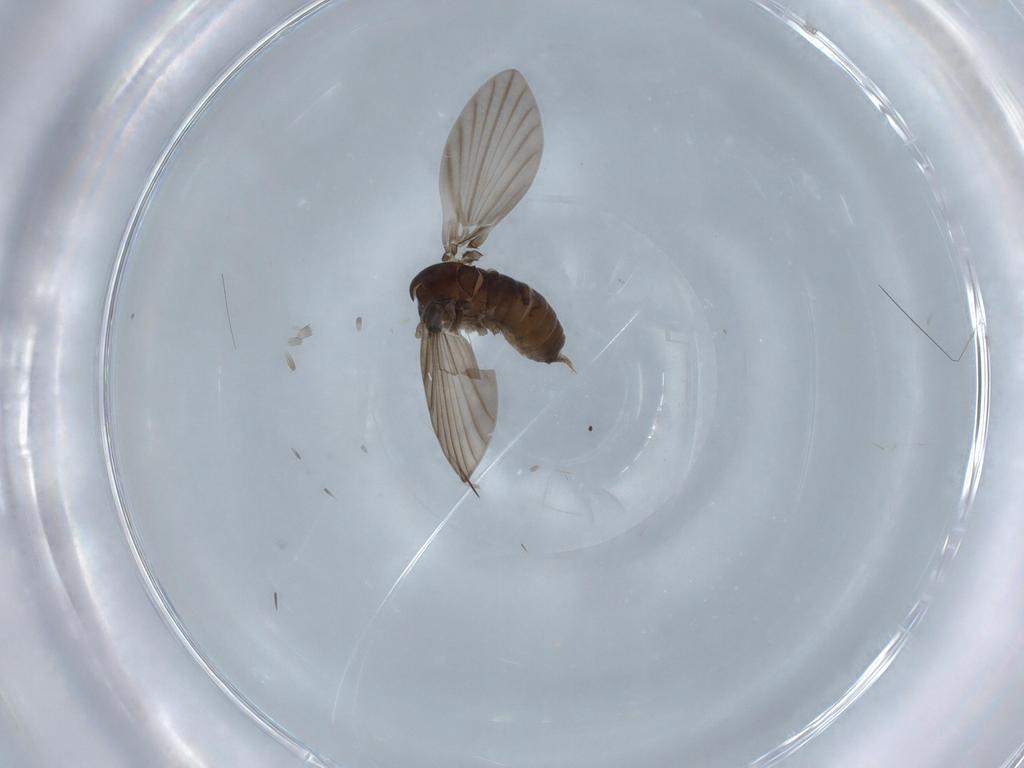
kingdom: Animalia
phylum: Arthropoda
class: Insecta
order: Diptera
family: Psychodidae
